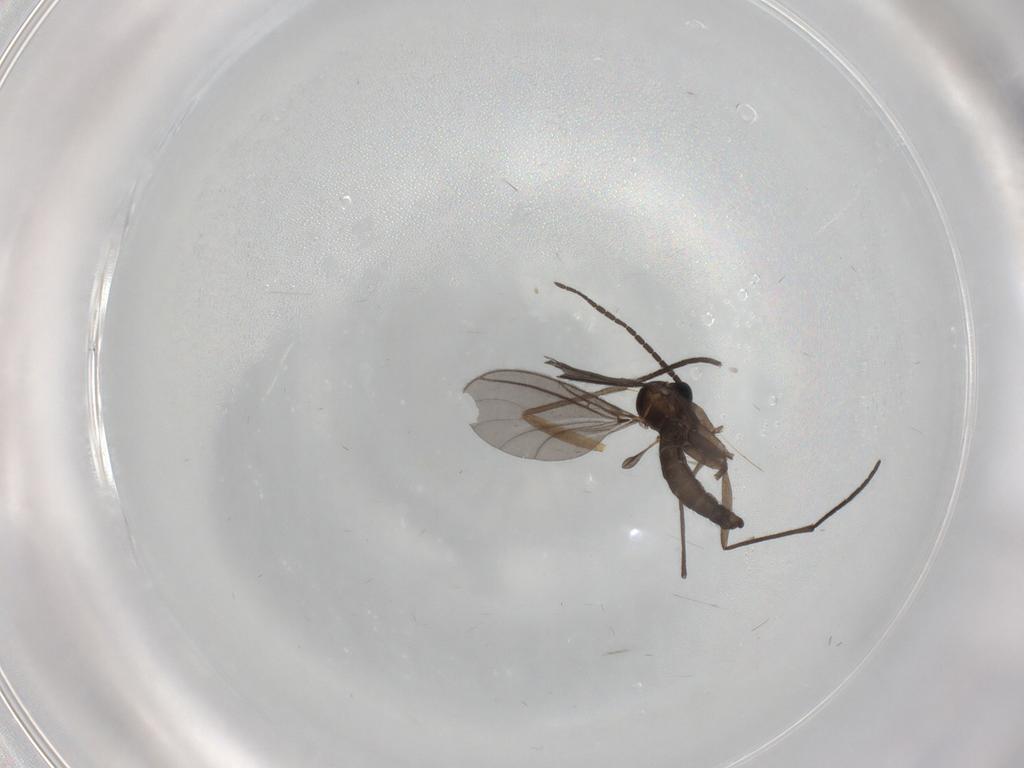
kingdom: Animalia
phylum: Arthropoda
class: Insecta
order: Diptera
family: Sciaridae
